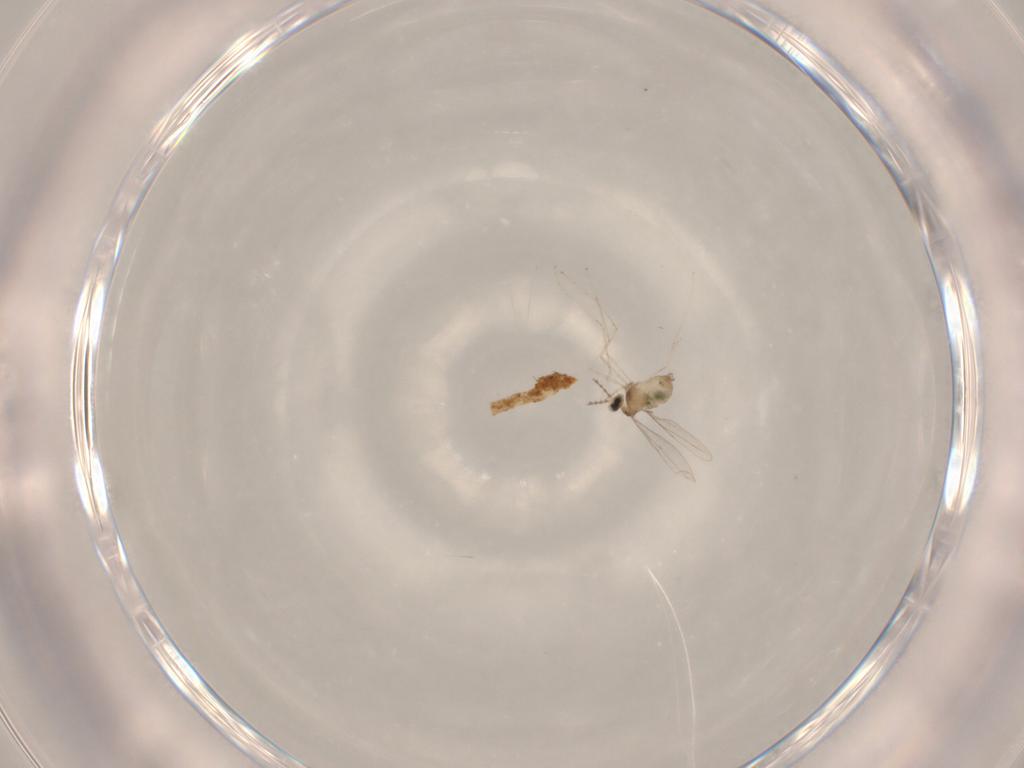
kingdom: Animalia
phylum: Arthropoda
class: Insecta
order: Diptera
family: Cecidomyiidae
